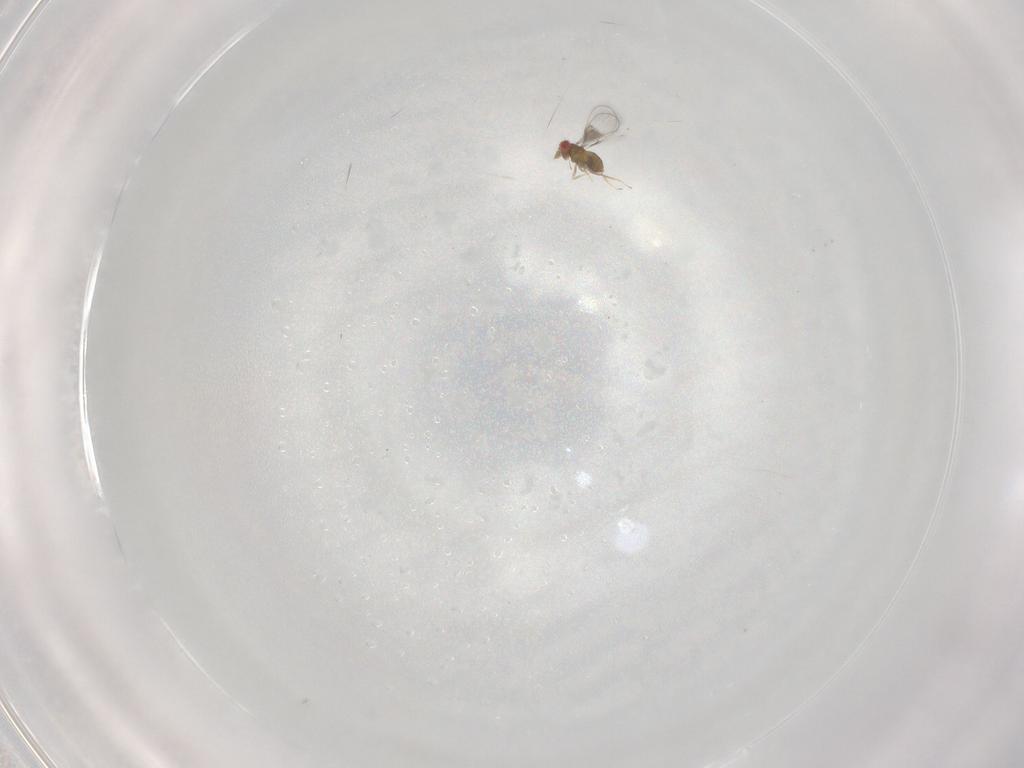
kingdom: Animalia
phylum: Arthropoda
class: Insecta
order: Hymenoptera
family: Trichogrammatidae
